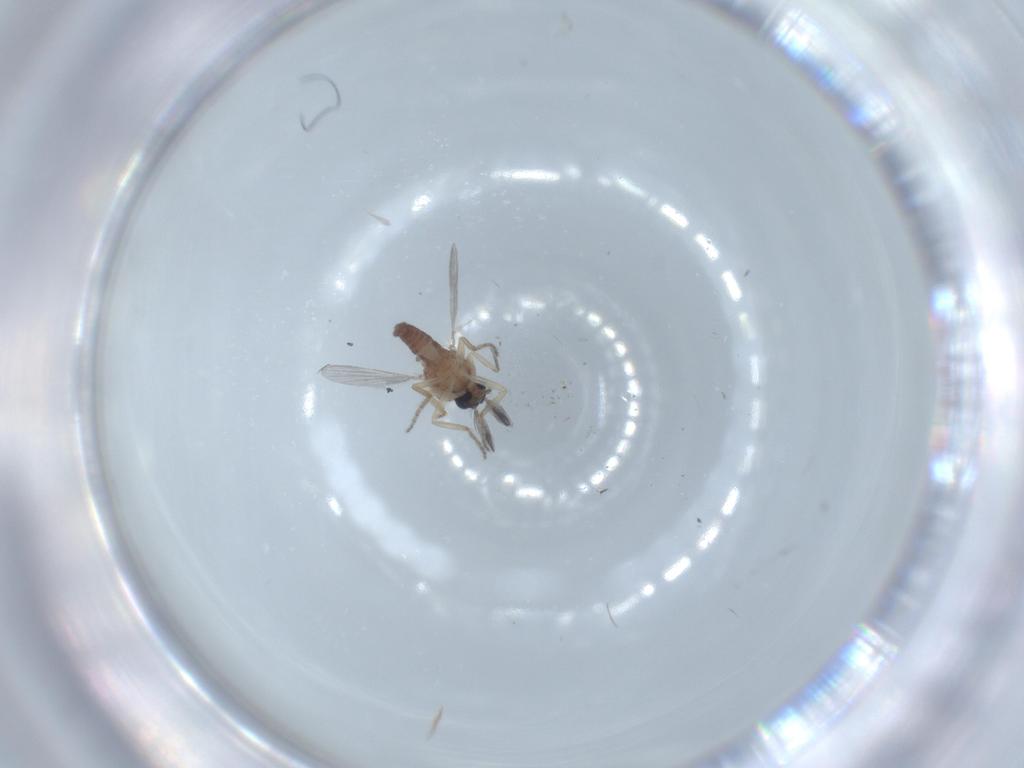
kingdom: Animalia
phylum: Arthropoda
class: Insecta
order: Diptera
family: Ceratopogonidae
